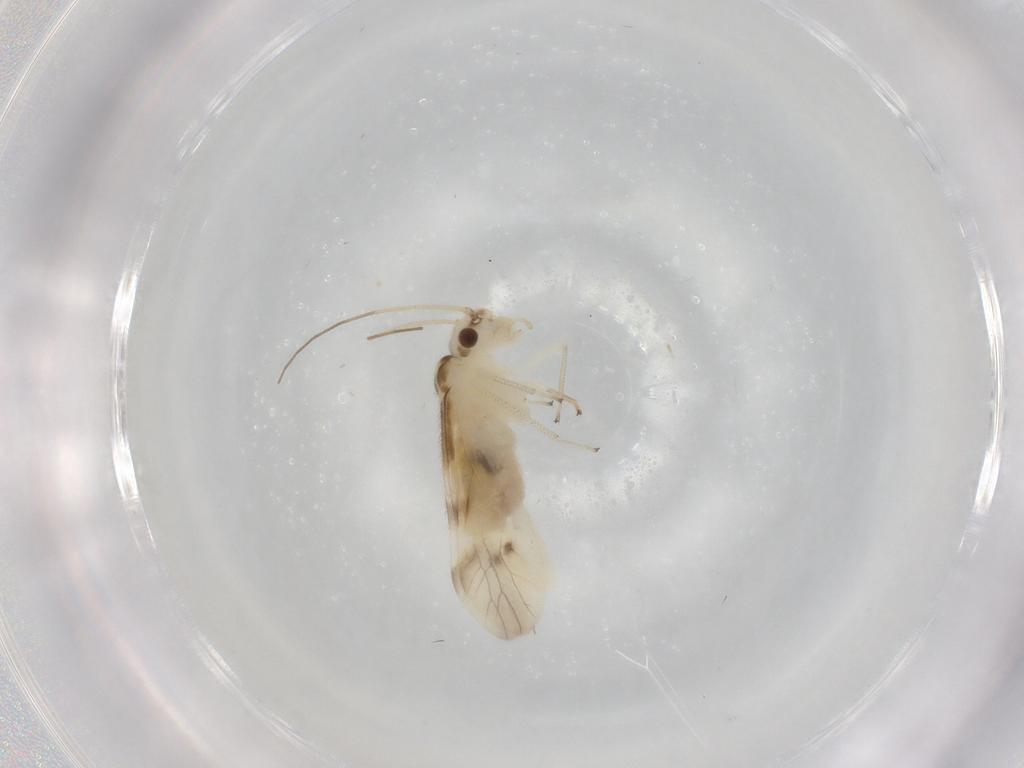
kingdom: Animalia
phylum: Arthropoda
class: Insecta
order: Psocodea
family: Caeciliusidae
